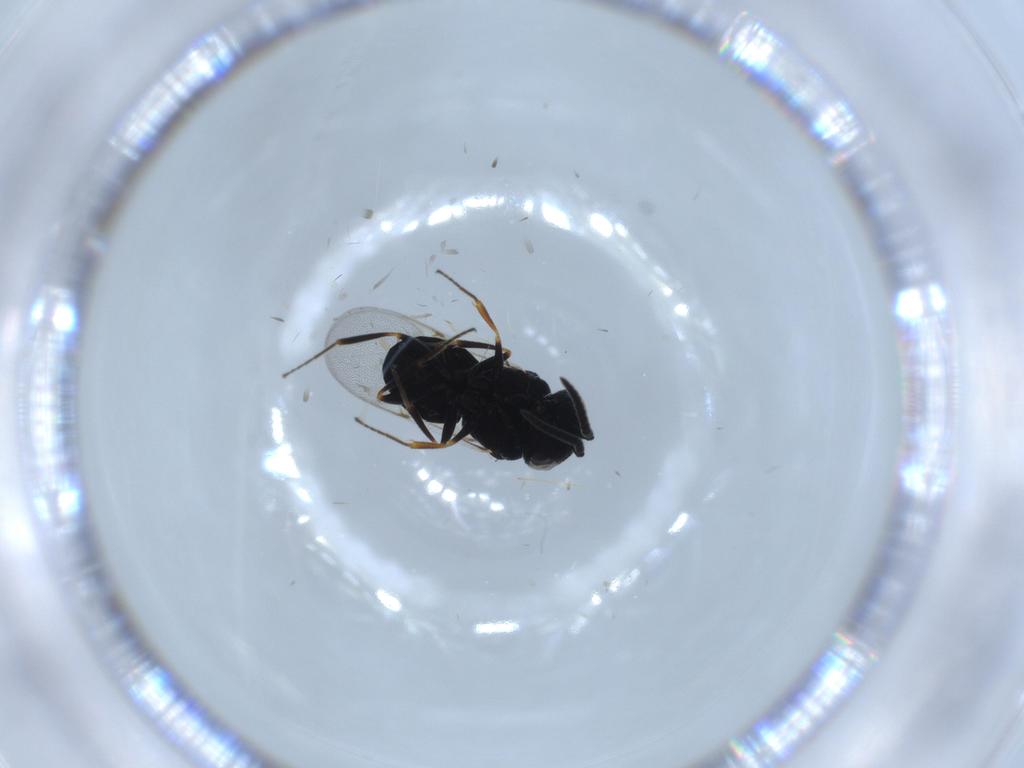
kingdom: Animalia
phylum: Arthropoda
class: Insecta
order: Hymenoptera
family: Scelionidae
